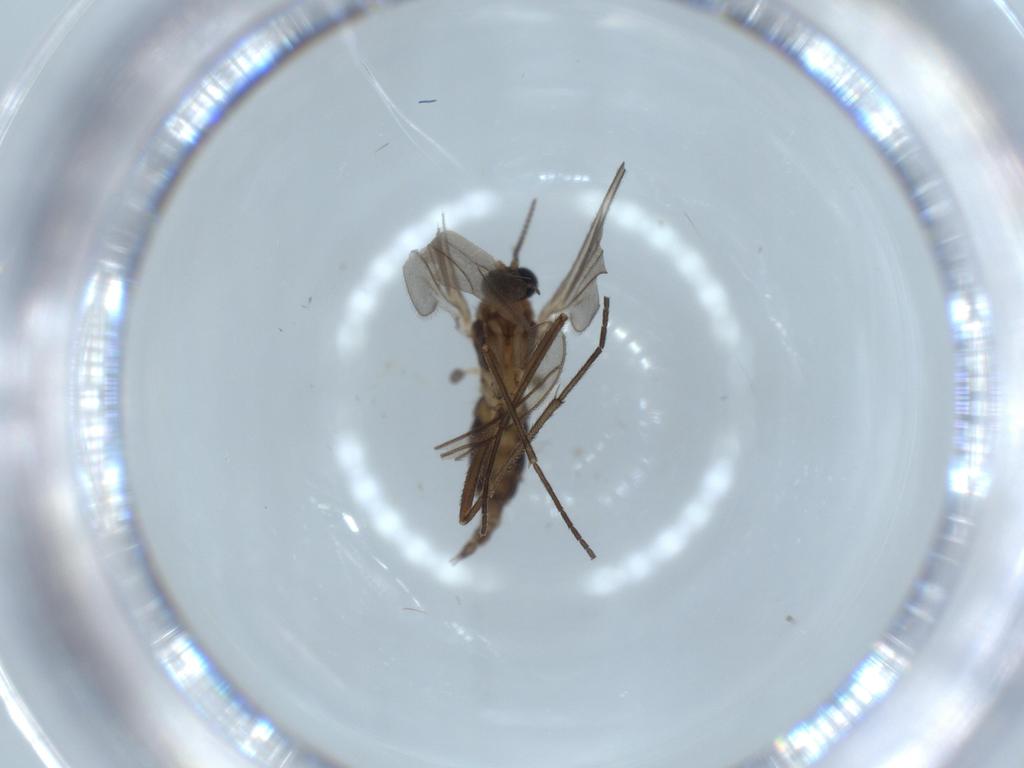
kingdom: Animalia
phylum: Arthropoda
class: Insecta
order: Diptera
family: Sciaridae
